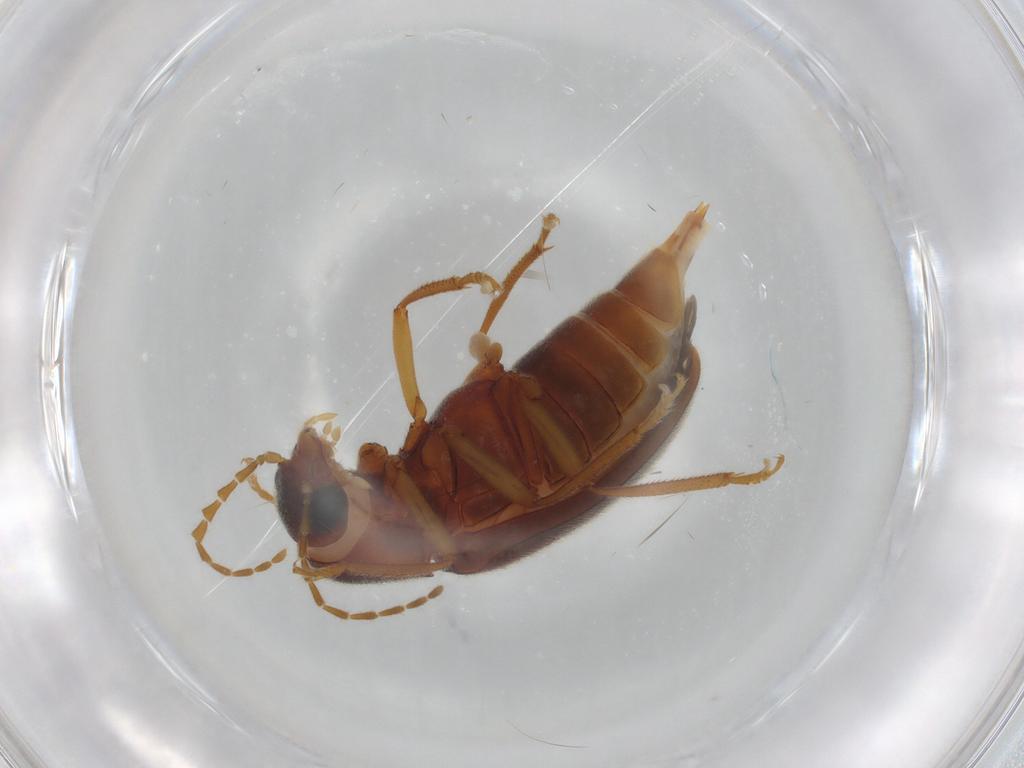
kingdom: Animalia
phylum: Arthropoda
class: Insecta
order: Coleoptera
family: Ptilodactylidae
